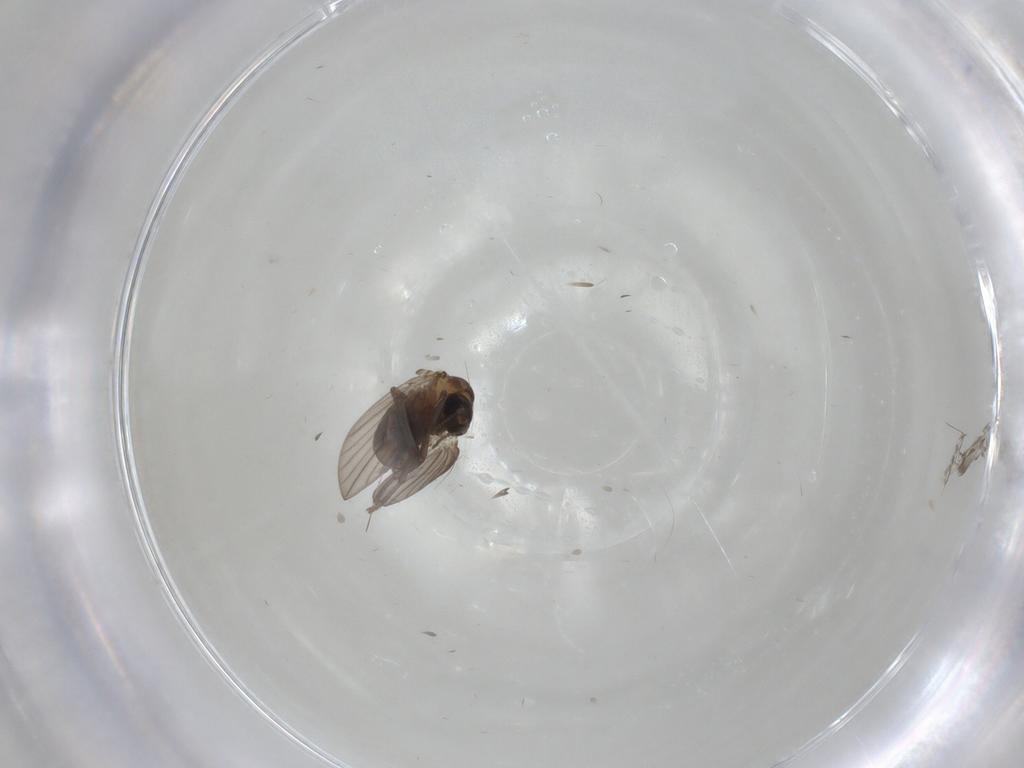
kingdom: Animalia
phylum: Arthropoda
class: Insecta
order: Diptera
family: Psychodidae
